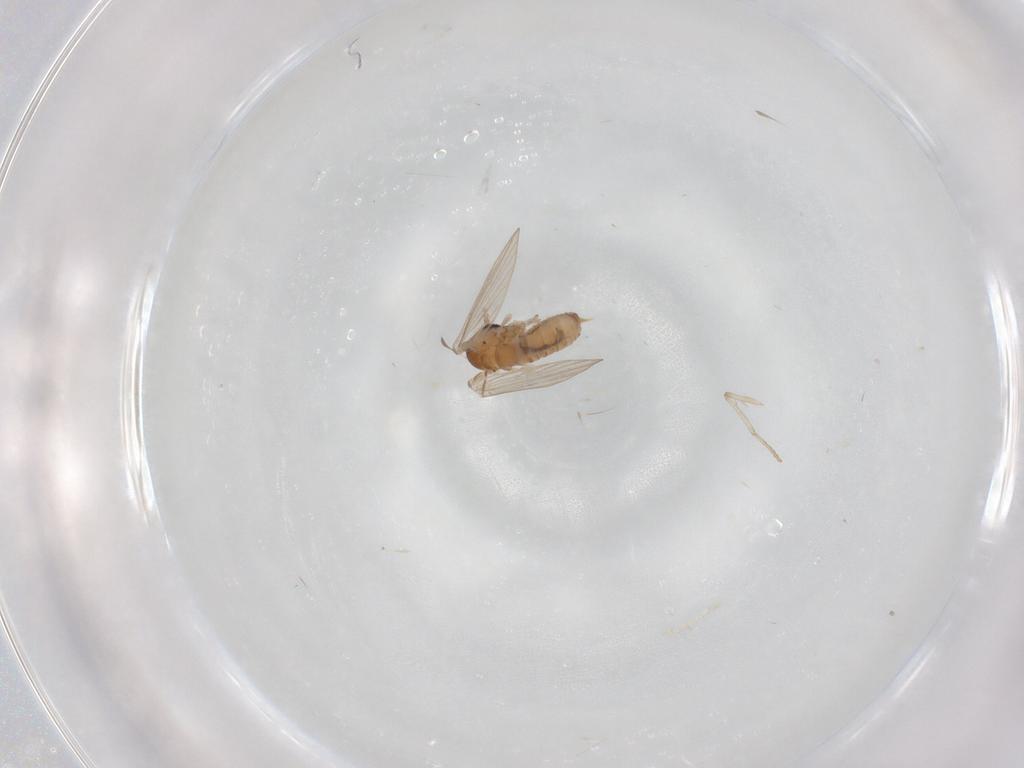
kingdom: Animalia
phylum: Arthropoda
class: Insecta
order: Diptera
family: Psychodidae
